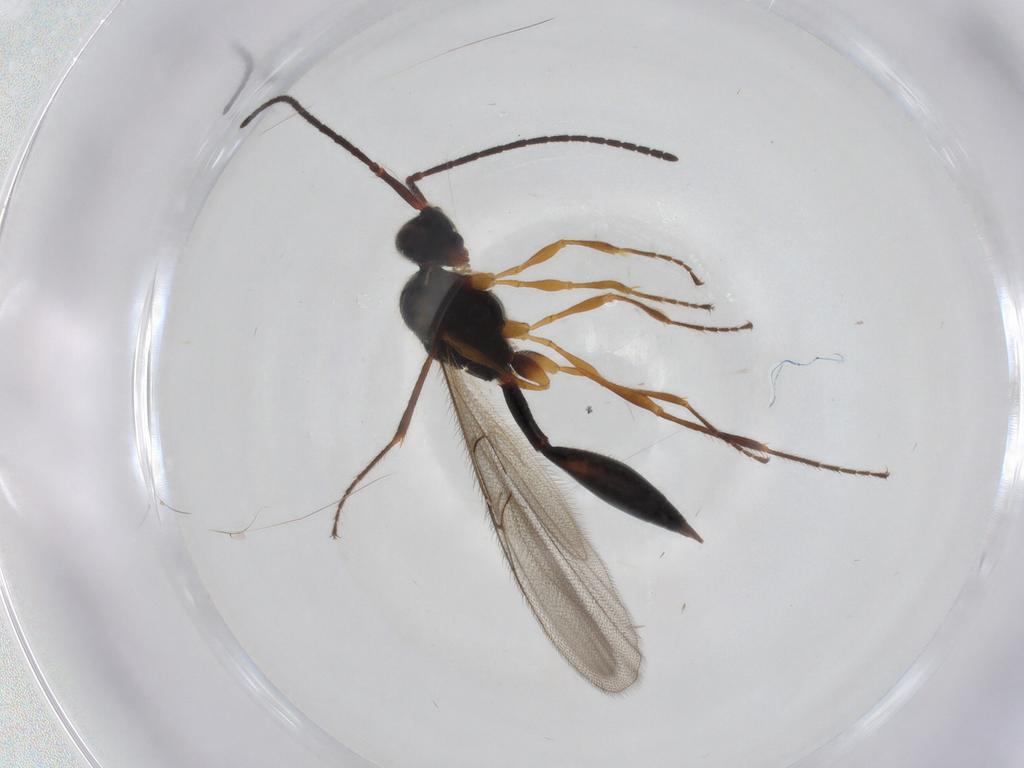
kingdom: Animalia
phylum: Arthropoda
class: Insecta
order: Hymenoptera
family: Diapriidae
